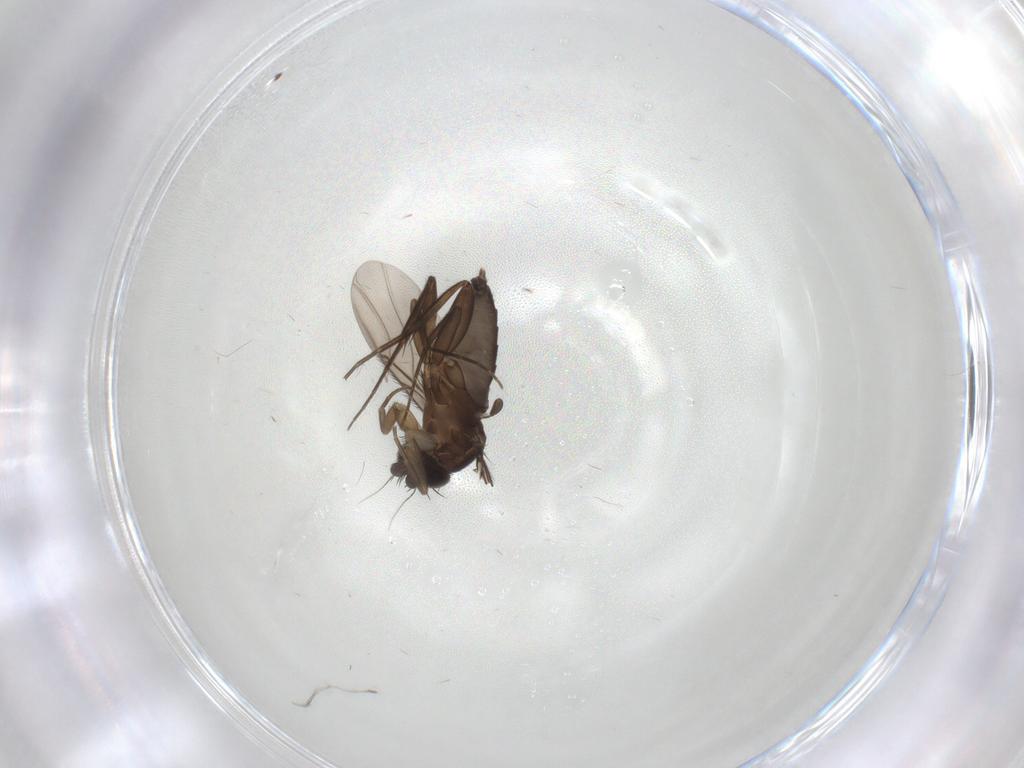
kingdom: Animalia
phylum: Arthropoda
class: Insecta
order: Diptera
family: Phoridae
